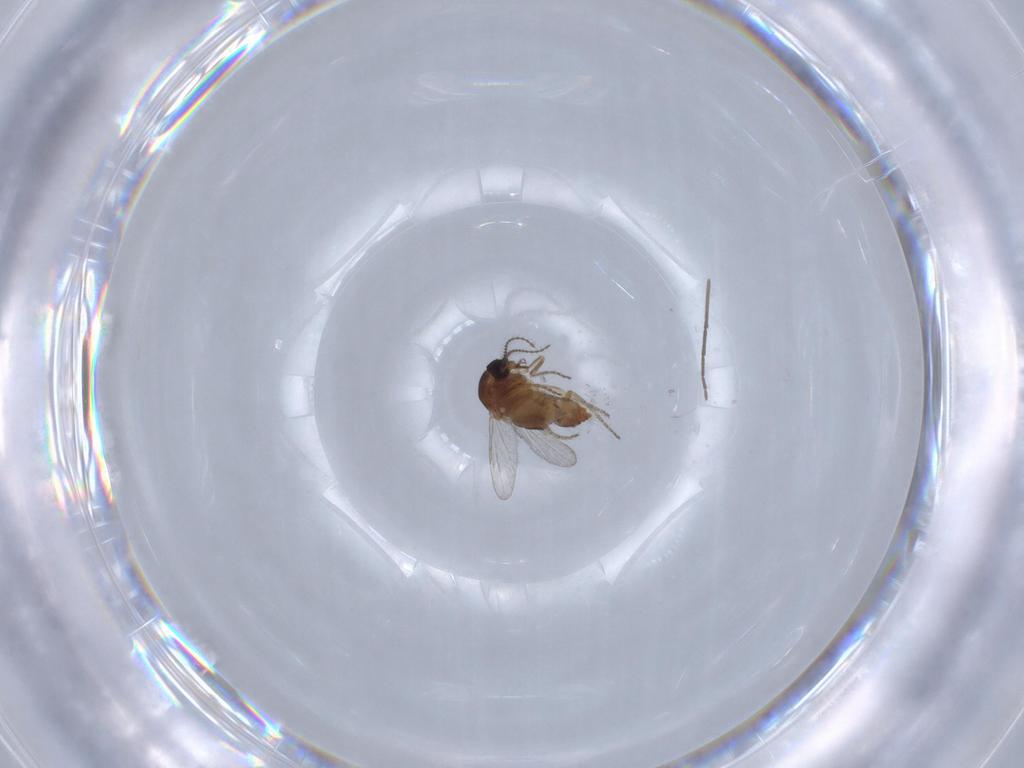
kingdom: Animalia
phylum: Arthropoda
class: Insecta
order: Diptera
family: Ceratopogonidae
